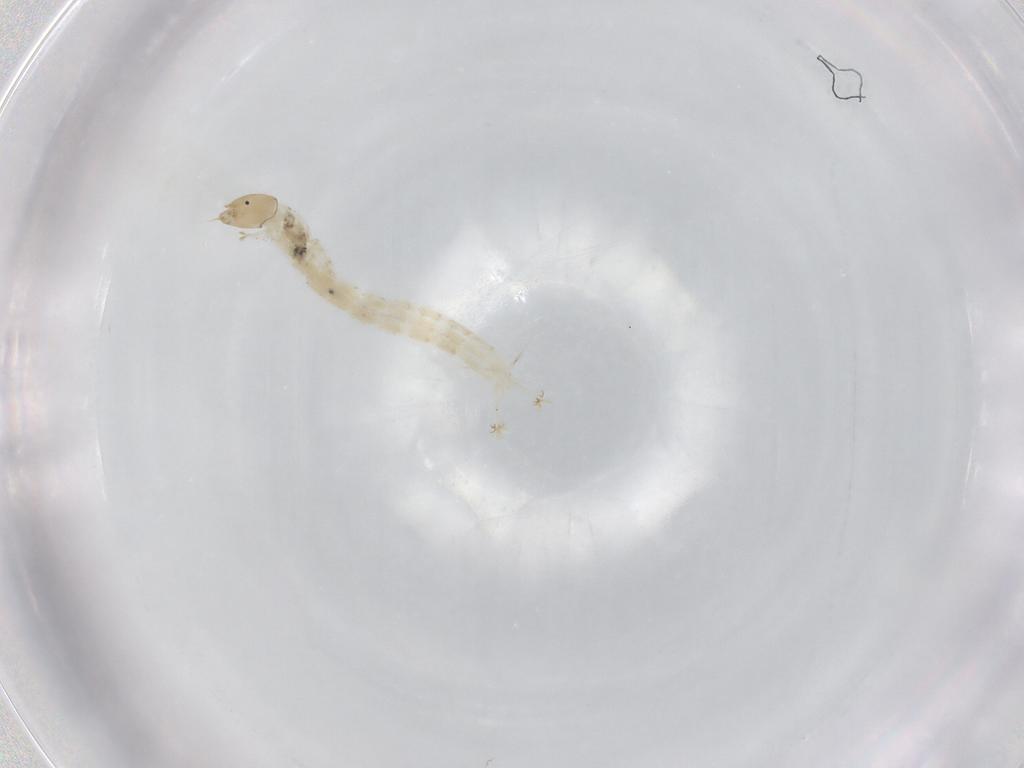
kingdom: Animalia
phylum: Arthropoda
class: Insecta
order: Diptera
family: Chironomidae
